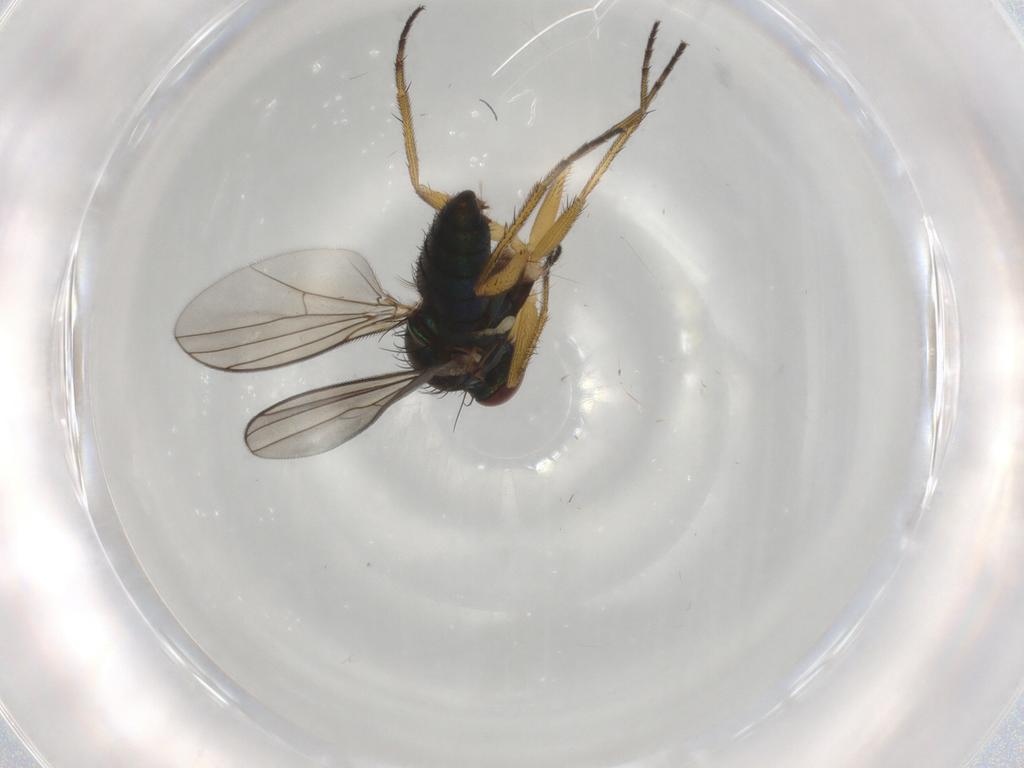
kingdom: Animalia
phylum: Arthropoda
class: Insecta
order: Diptera
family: Dolichopodidae
